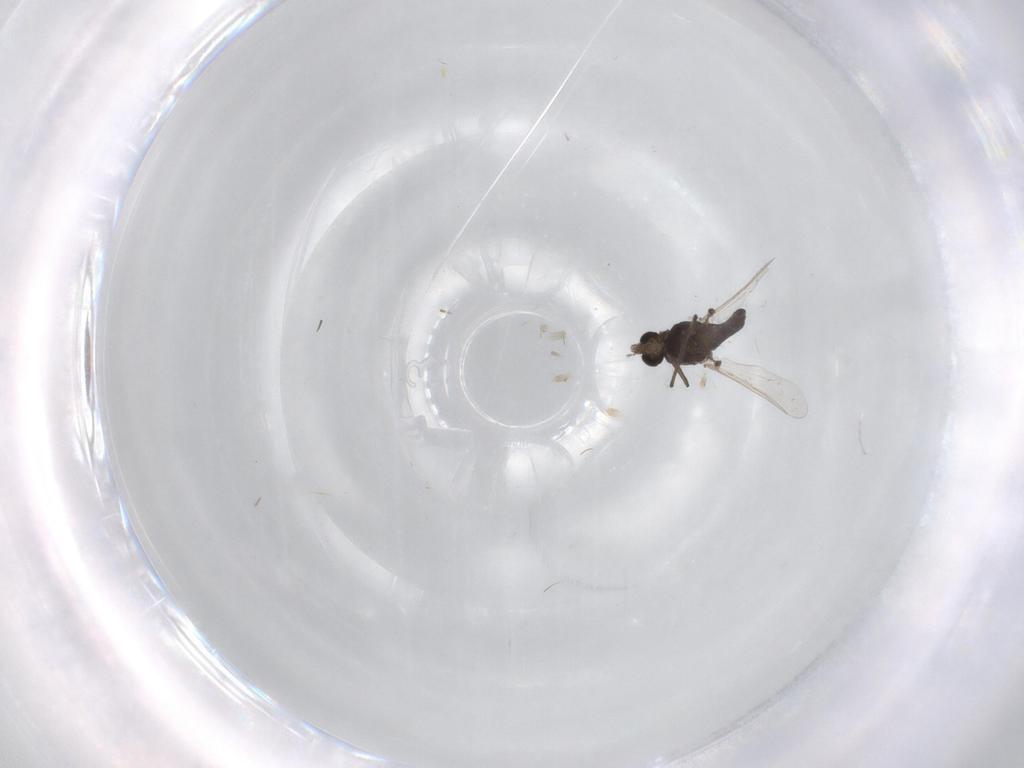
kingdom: Animalia
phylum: Arthropoda
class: Insecta
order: Diptera
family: Chironomidae
